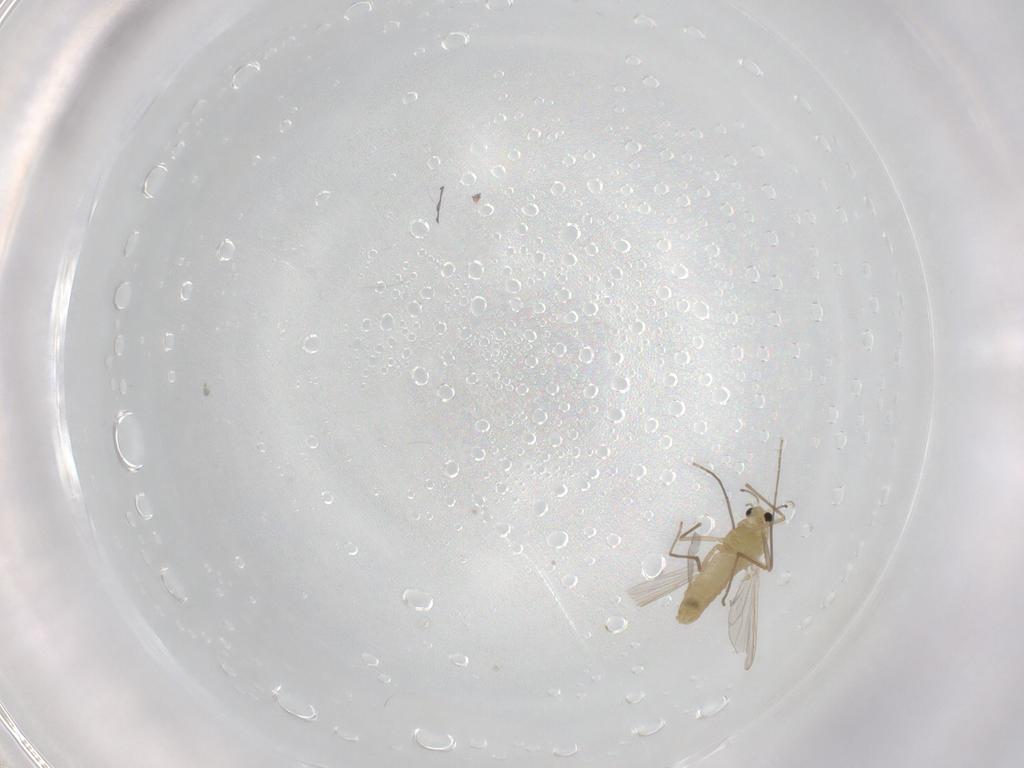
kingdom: Animalia
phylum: Arthropoda
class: Insecta
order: Diptera
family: Chironomidae
